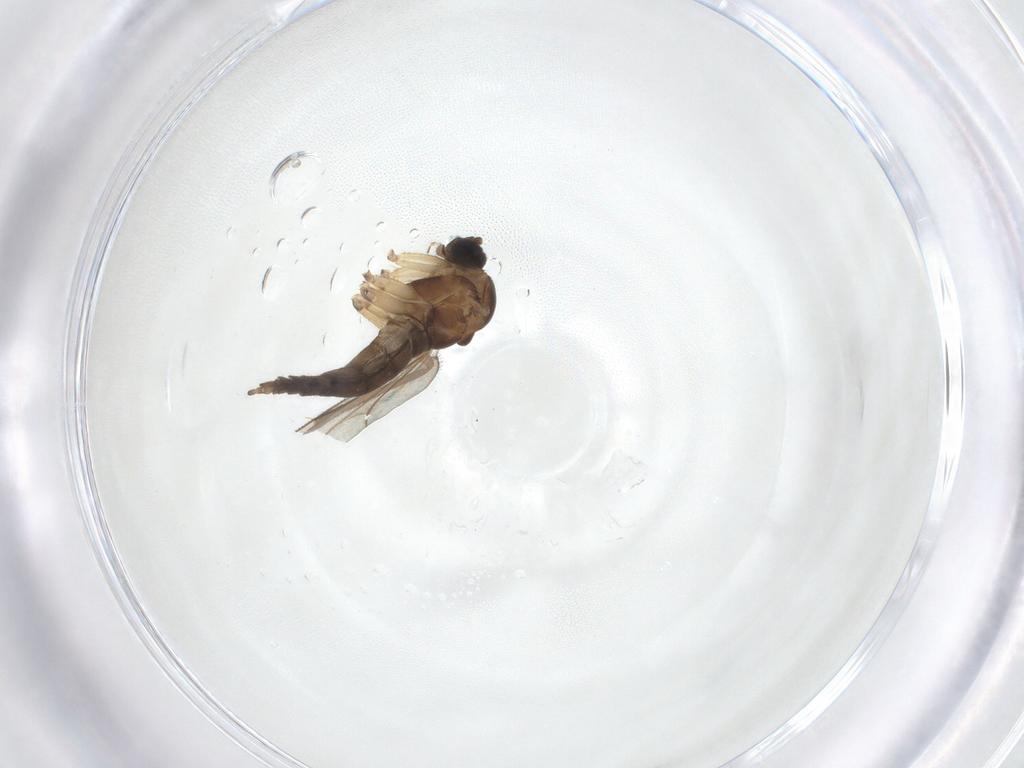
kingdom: Animalia
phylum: Arthropoda
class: Insecta
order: Diptera
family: Sciaridae
